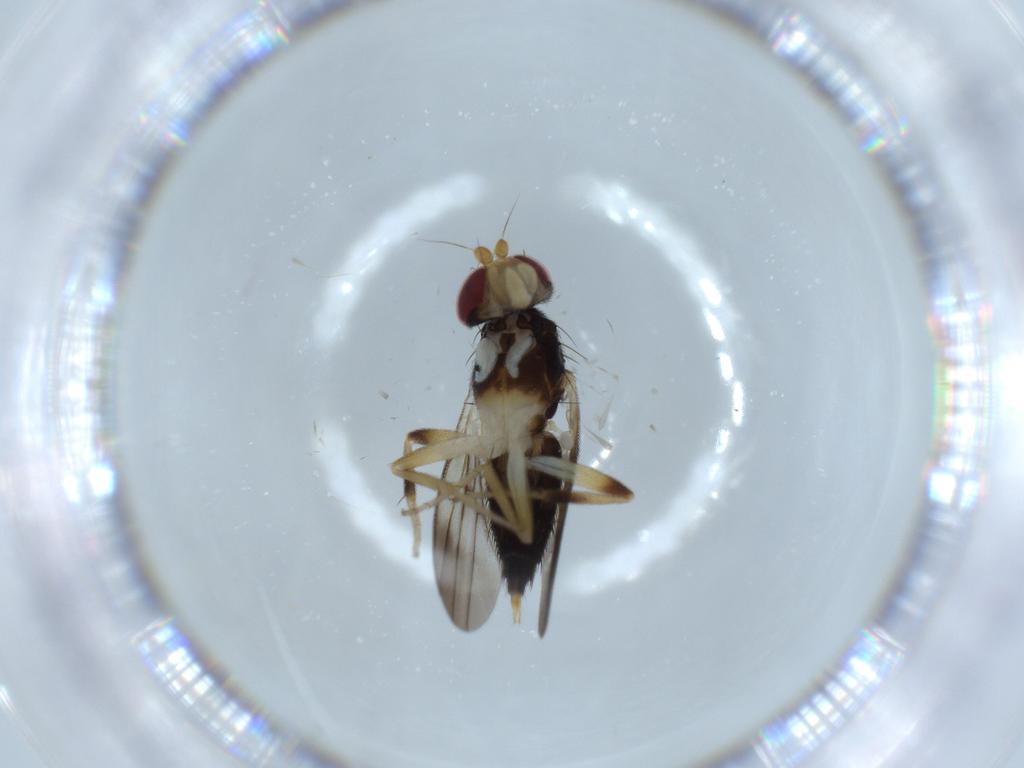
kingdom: Animalia
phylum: Arthropoda
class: Insecta
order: Diptera
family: Clusiidae
